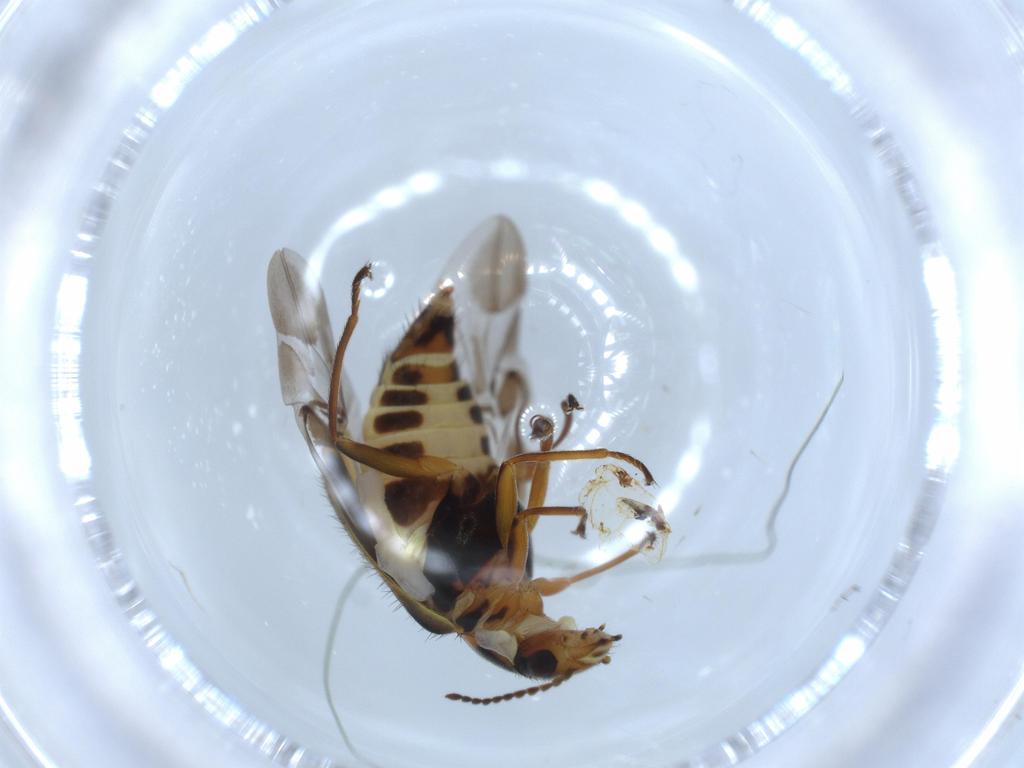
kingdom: Animalia
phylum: Arthropoda
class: Insecta
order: Coleoptera
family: Melyridae
